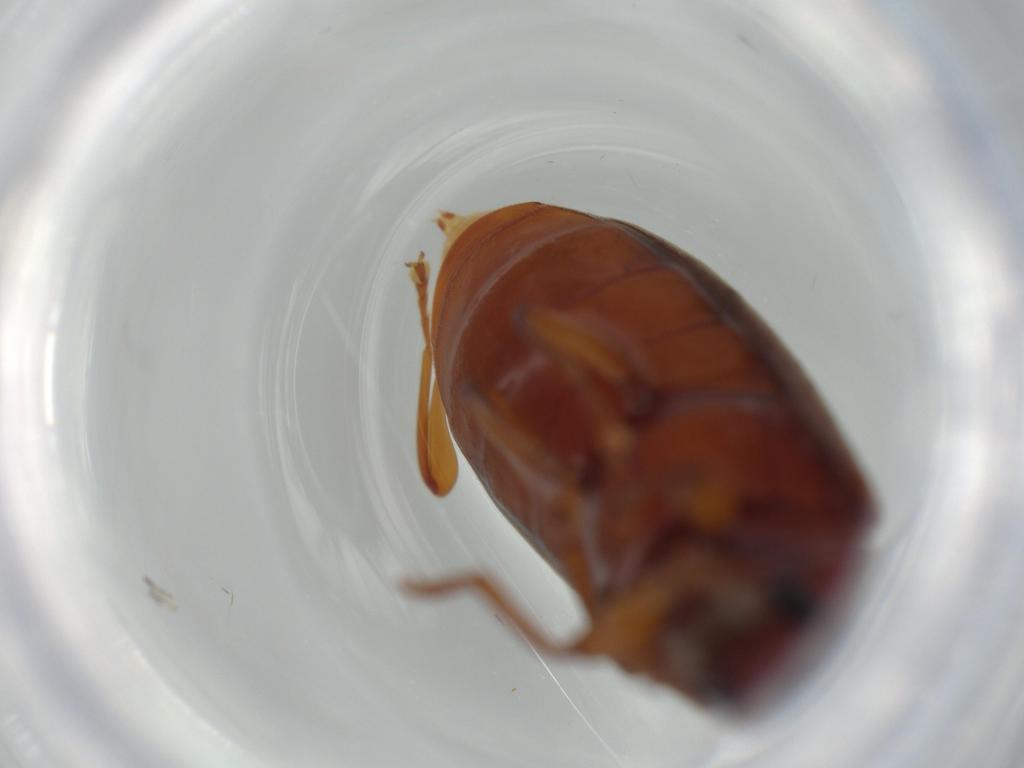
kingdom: Animalia
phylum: Arthropoda
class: Insecta
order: Coleoptera
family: Mycteridae
